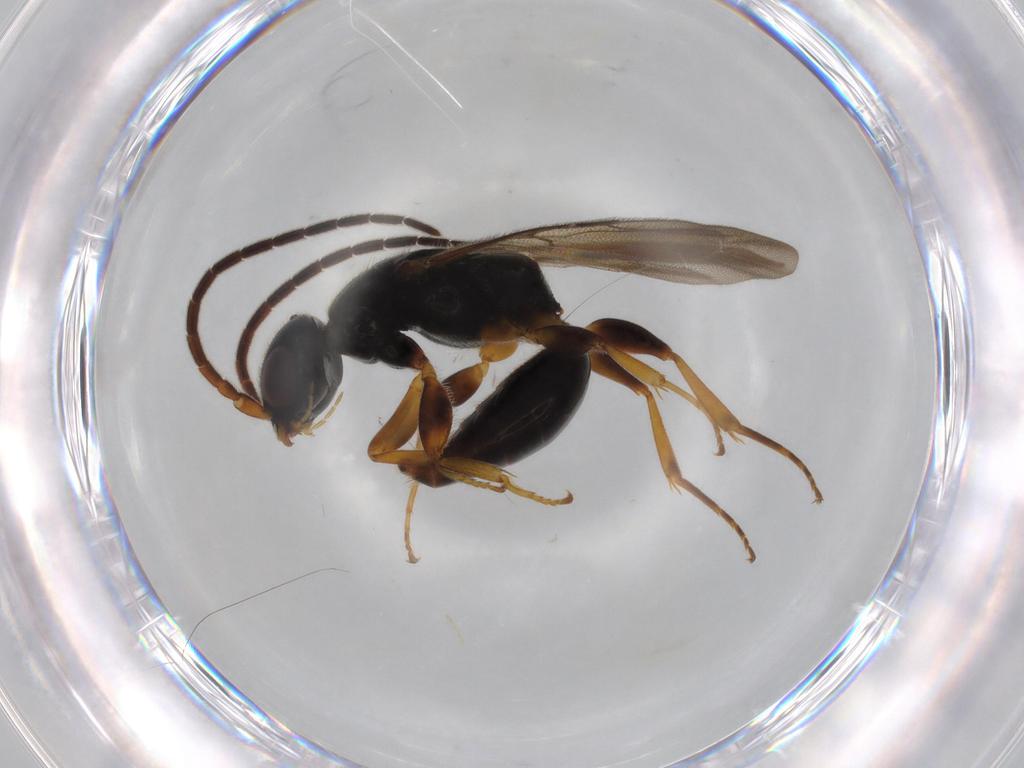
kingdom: Animalia
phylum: Arthropoda
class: Insecta
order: Hymenoptera
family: Bethylidae
